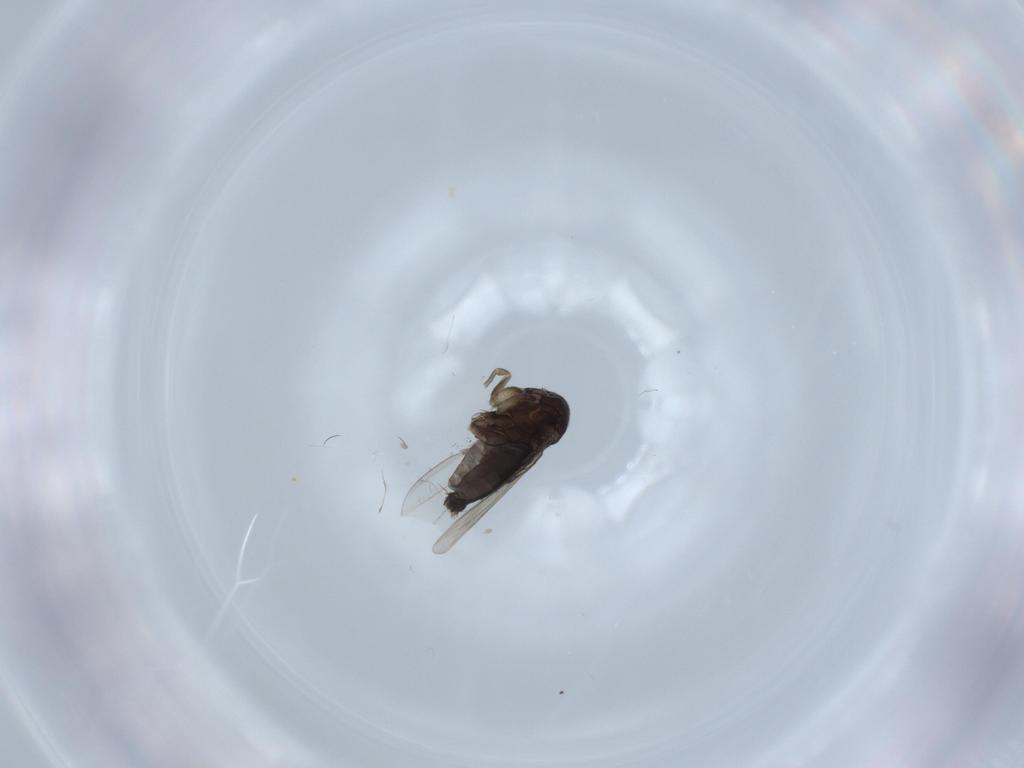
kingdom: Animalia
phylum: Arthropoda
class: Insecta
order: Diptera
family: Phoridae
